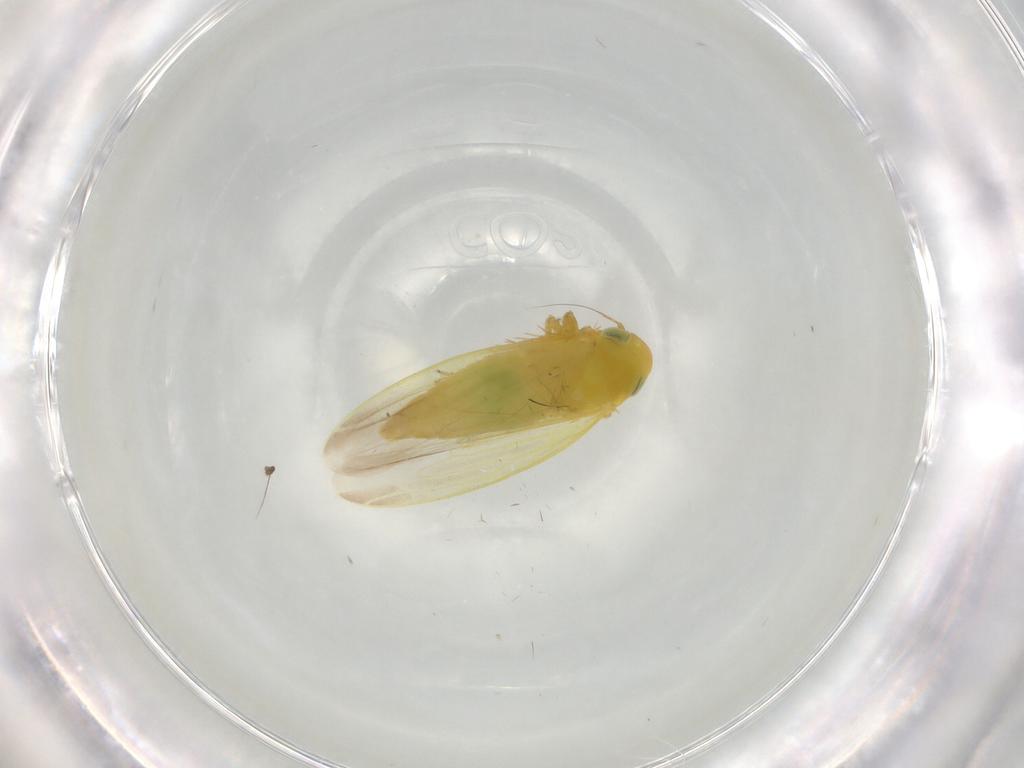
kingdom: Animalia
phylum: Arthropoda
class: Insecta
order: Hemiptera
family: Cicadellidae
